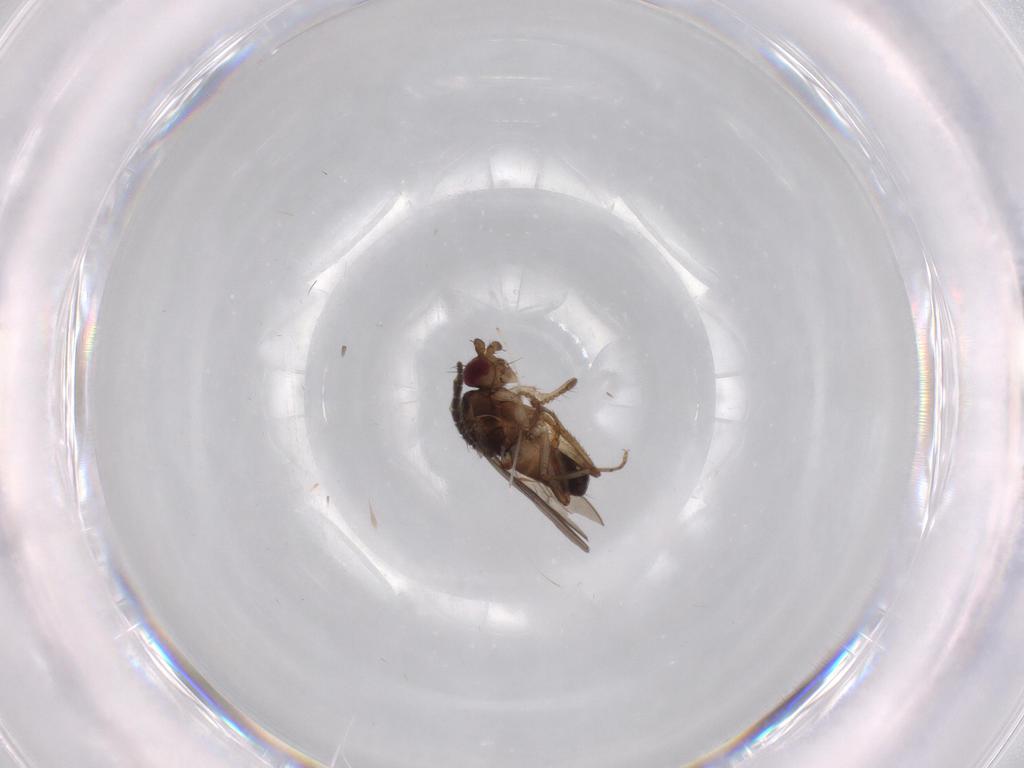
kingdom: Animalia
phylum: Arthropoda
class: Insecta
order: Diptera
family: Sphaeroceridae
